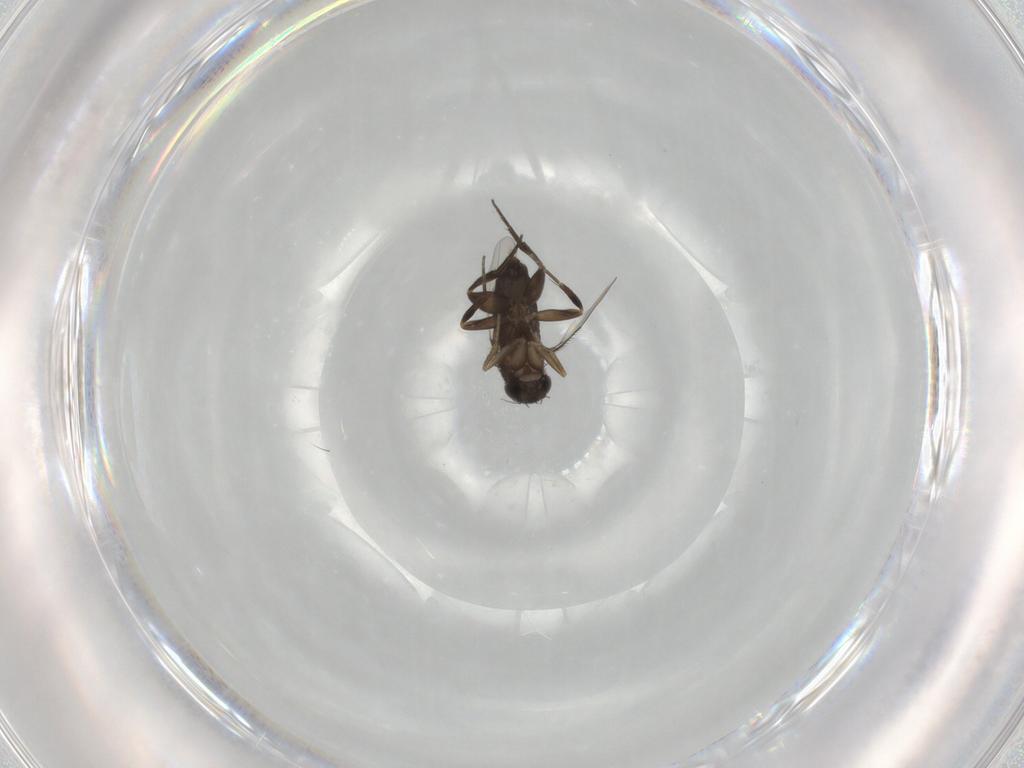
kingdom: Animalia
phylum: Arthropoda
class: Insecta
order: Diptera
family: Phoridae
